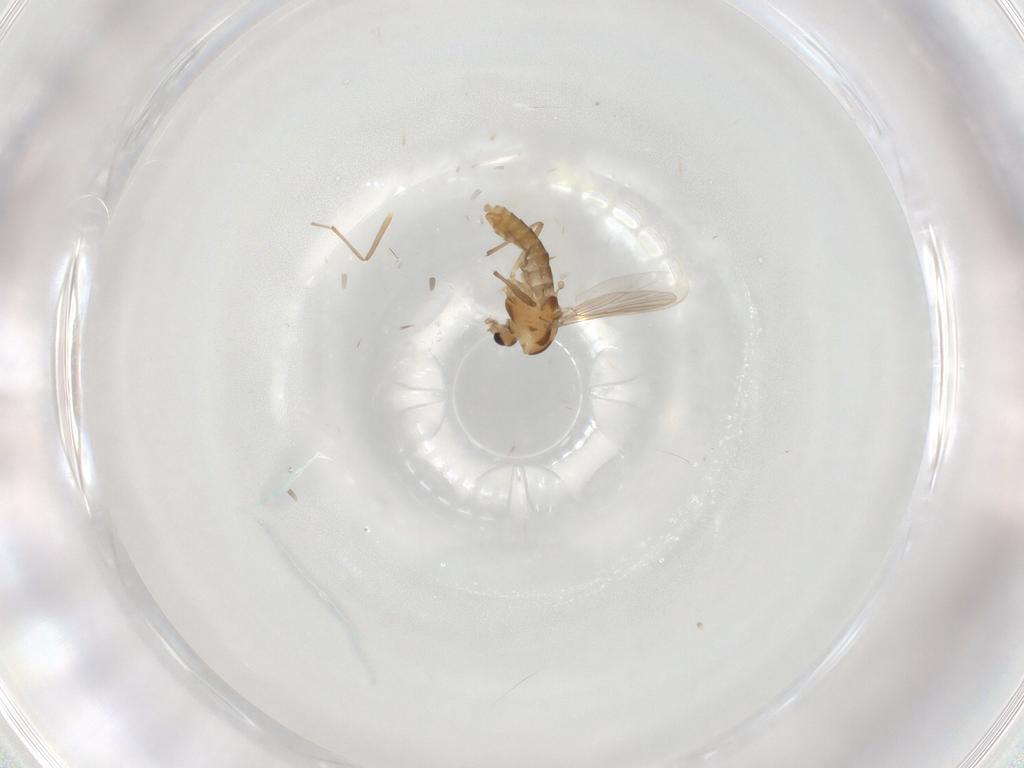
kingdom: Animalia
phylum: Arthropoda
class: Insecta
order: Diptera
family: Chironomidae
